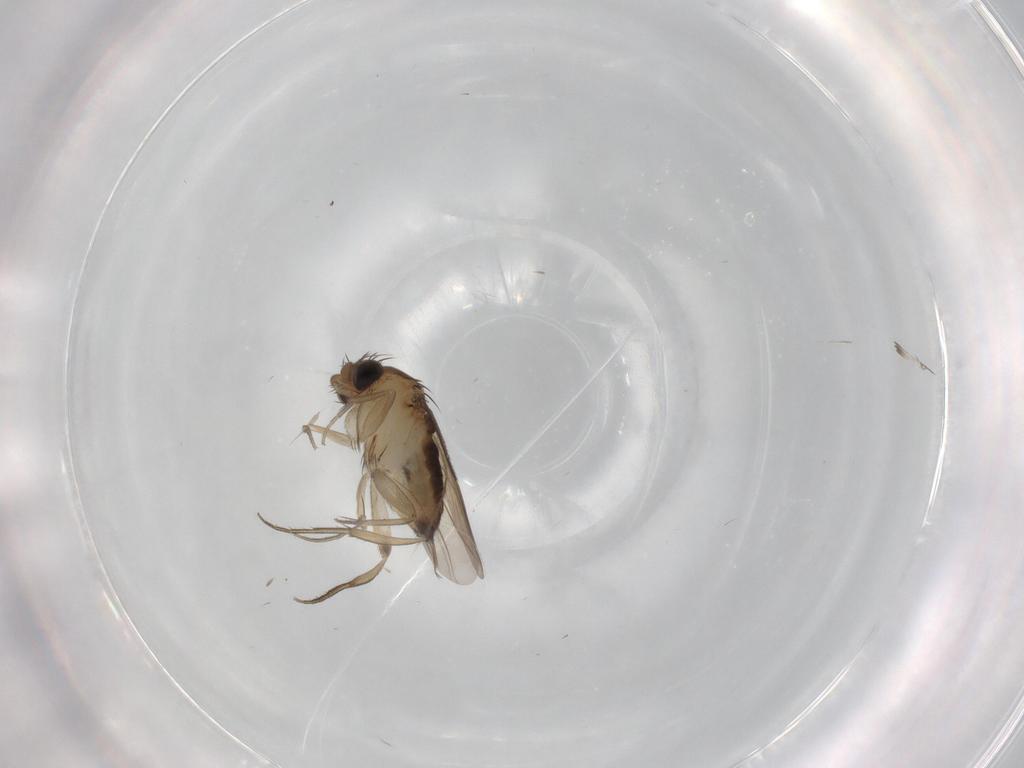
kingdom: Animalia
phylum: Arthropoda
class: Insecta
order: Diptera
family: Phoridae
